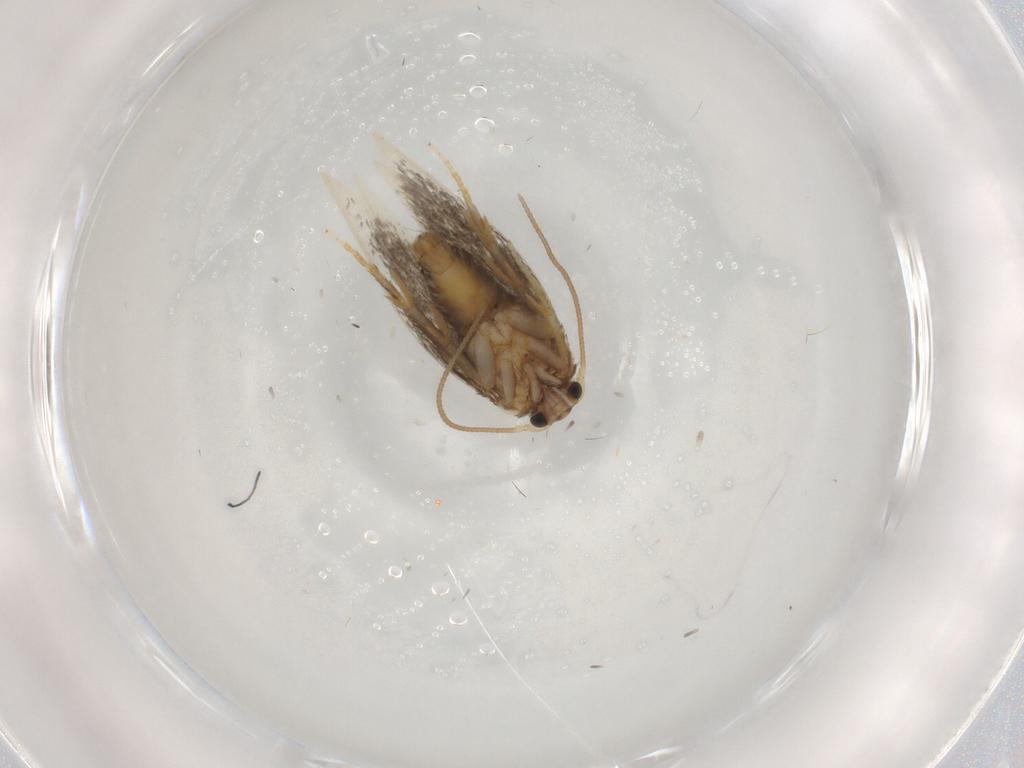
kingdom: Animalia
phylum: Arthropoda
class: Insecta
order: Lepidoptera
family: Nepticulidae
